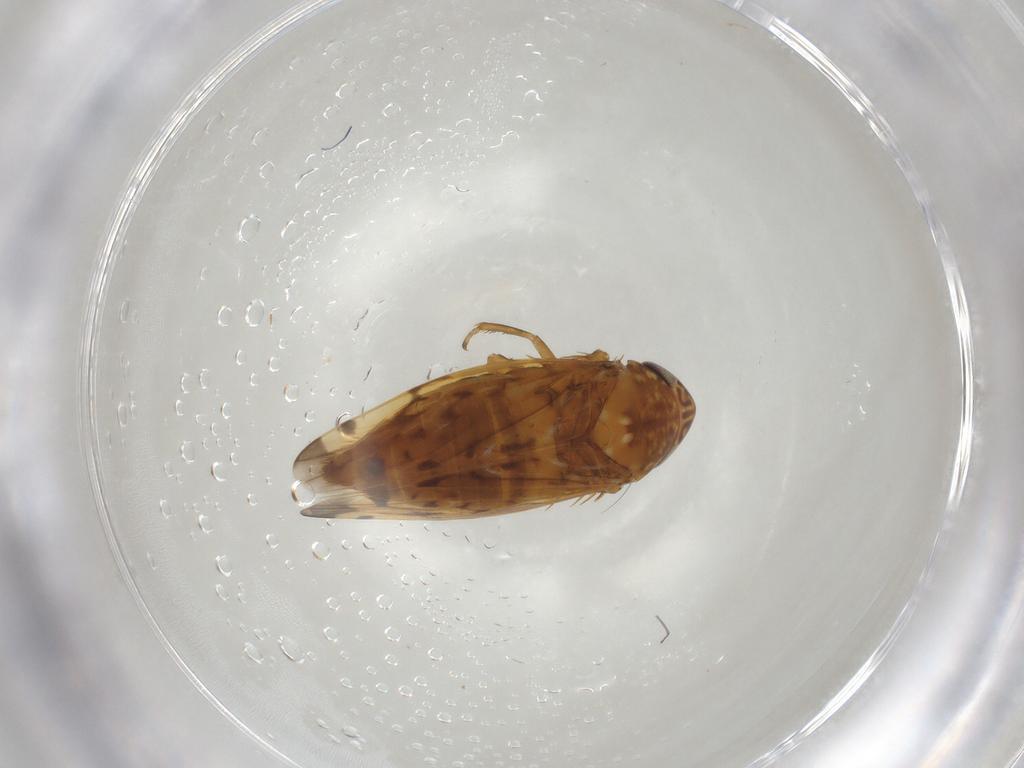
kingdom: Animalia
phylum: Arthropoda
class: Insecta
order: Hemiptera
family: Cicadellidae
